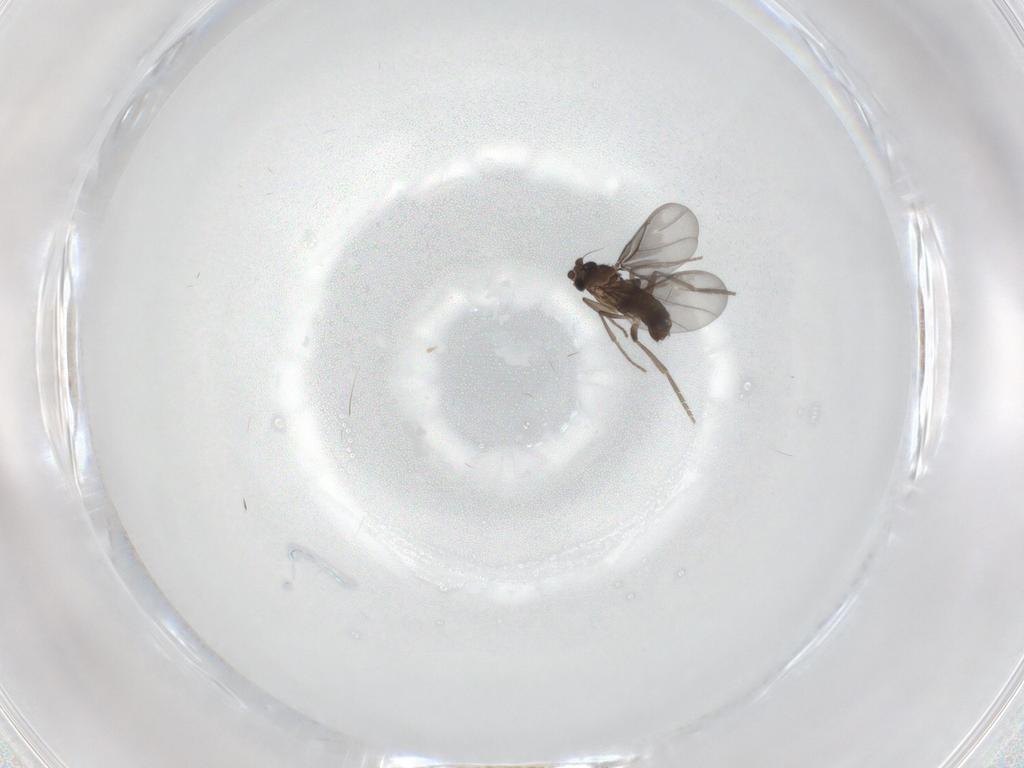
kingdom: Animalia
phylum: Arthropoda
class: Insecta
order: Diptera
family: Phoridae
